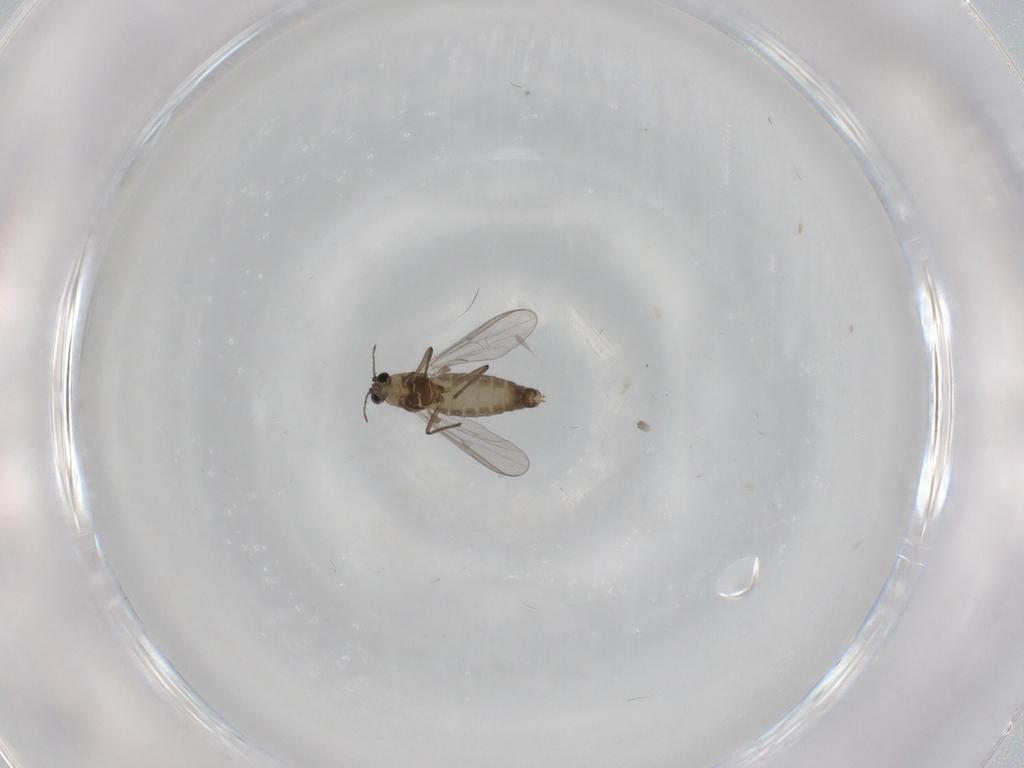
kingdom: Animalia
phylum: Arthropoda
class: Insecta
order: Diptera
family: Chironomidae
